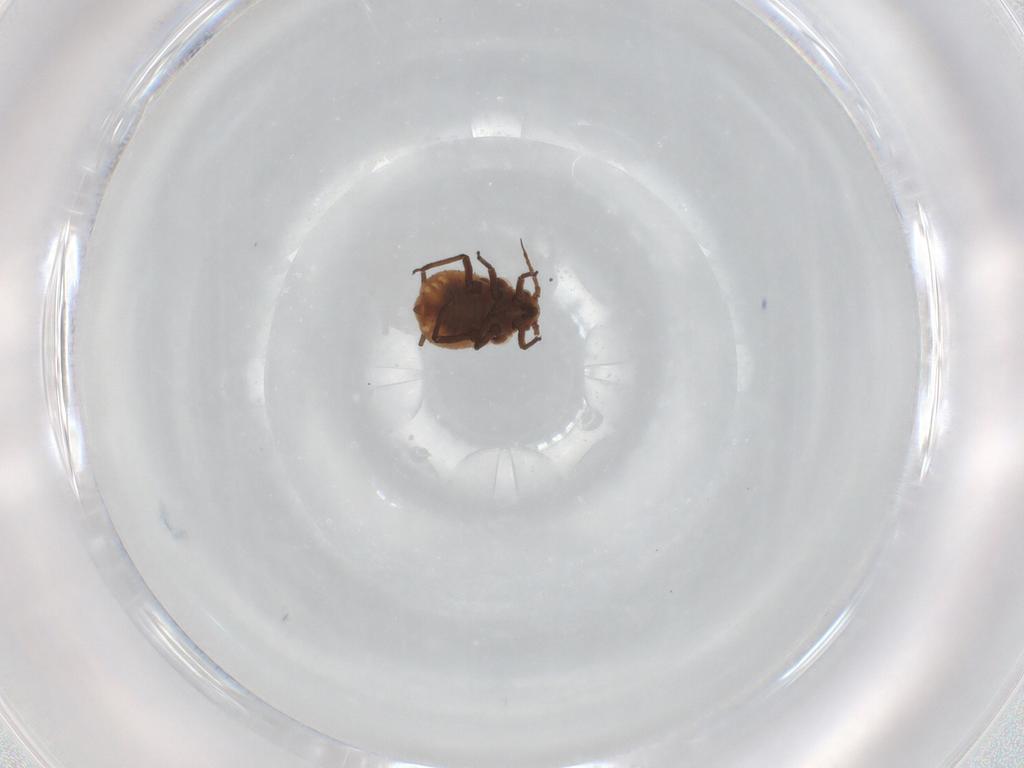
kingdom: Animalia
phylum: Arthropoda
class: Insecta
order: Hemiptera
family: Aphididae
